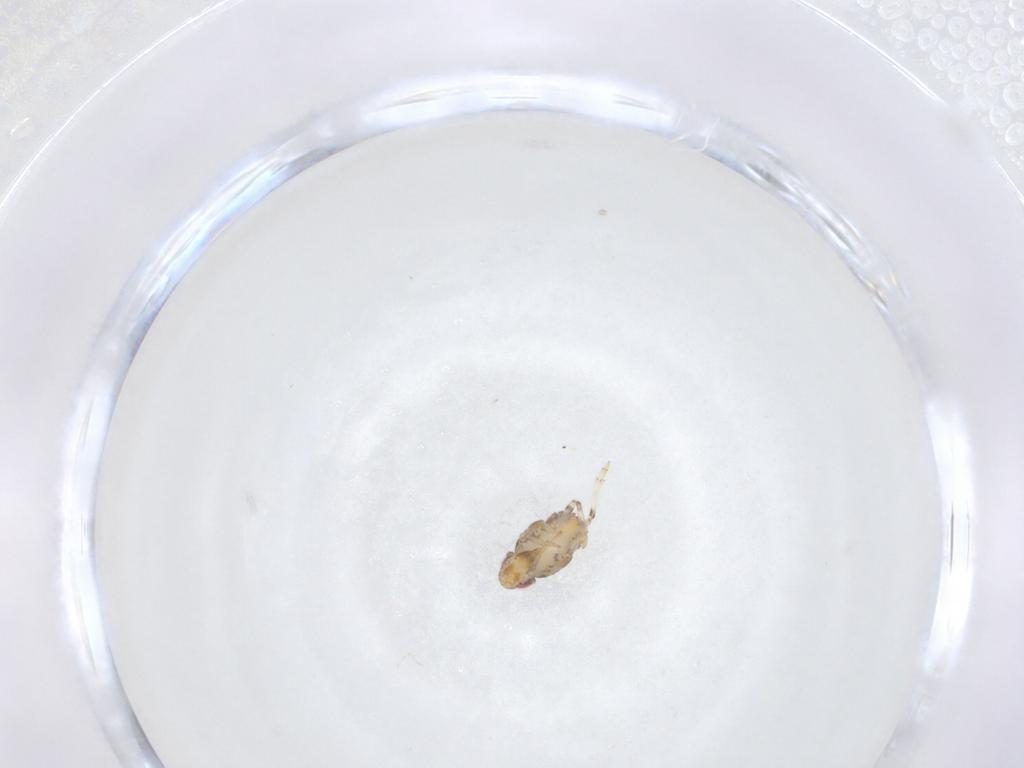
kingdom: Animalia
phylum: Arthropoda
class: Insecta
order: Hemiptera
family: Issidae
